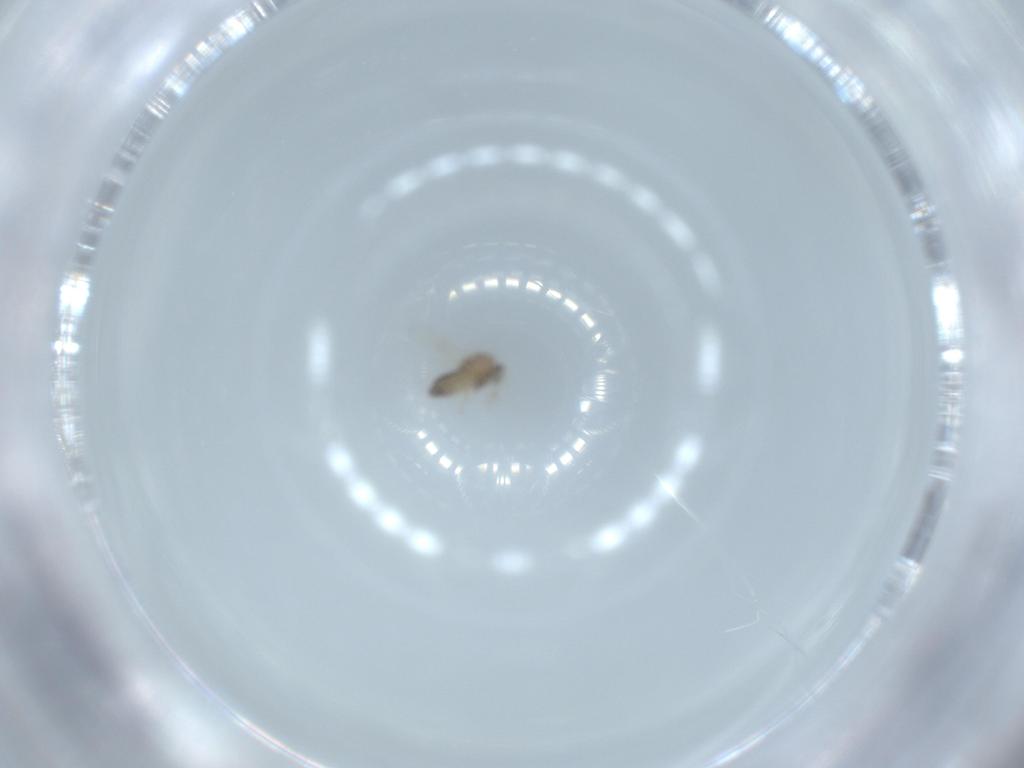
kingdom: Animalia
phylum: Arthropoda
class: Insecta
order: Diptera
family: Chironomidae
